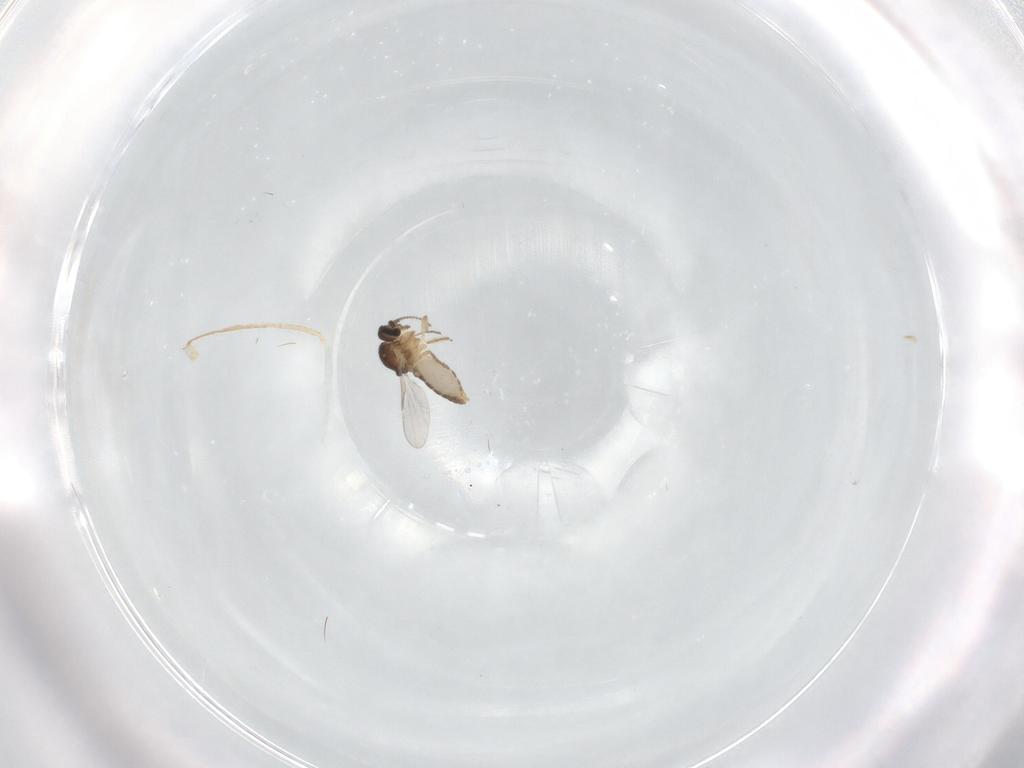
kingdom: Animalia
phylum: Arthropoda
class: Insecta
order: Diptera
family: Ceratopogonidae
